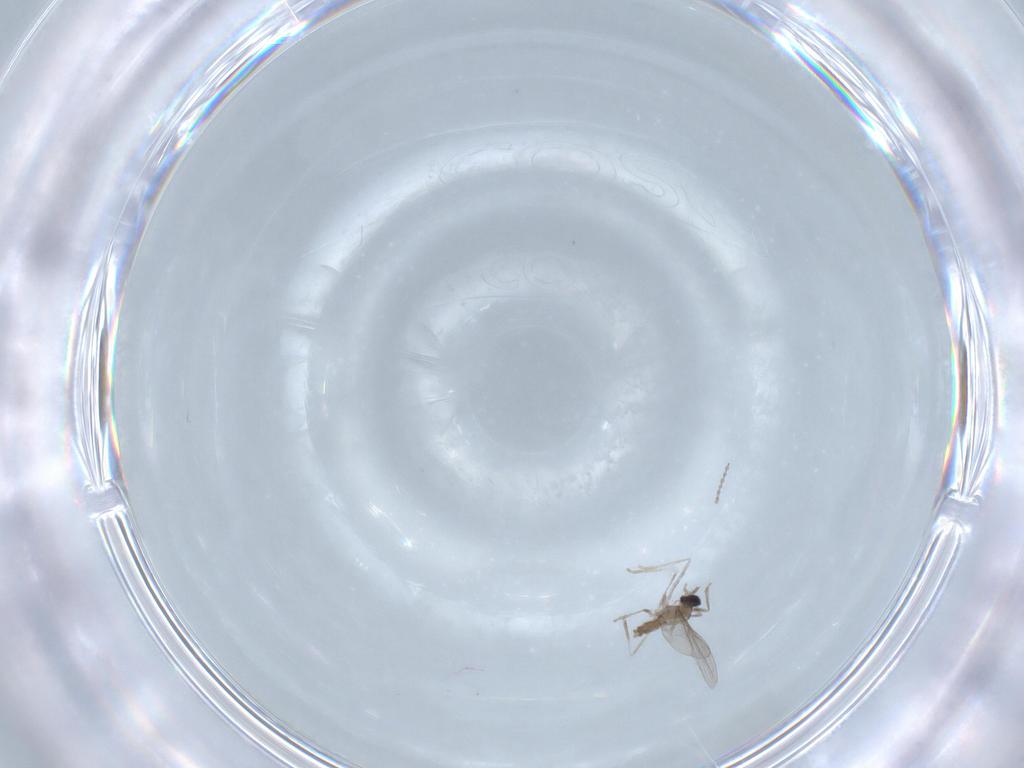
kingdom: Animalia
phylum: Arthropoda
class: Insecta
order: Diptera
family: Cecidomyiidae
